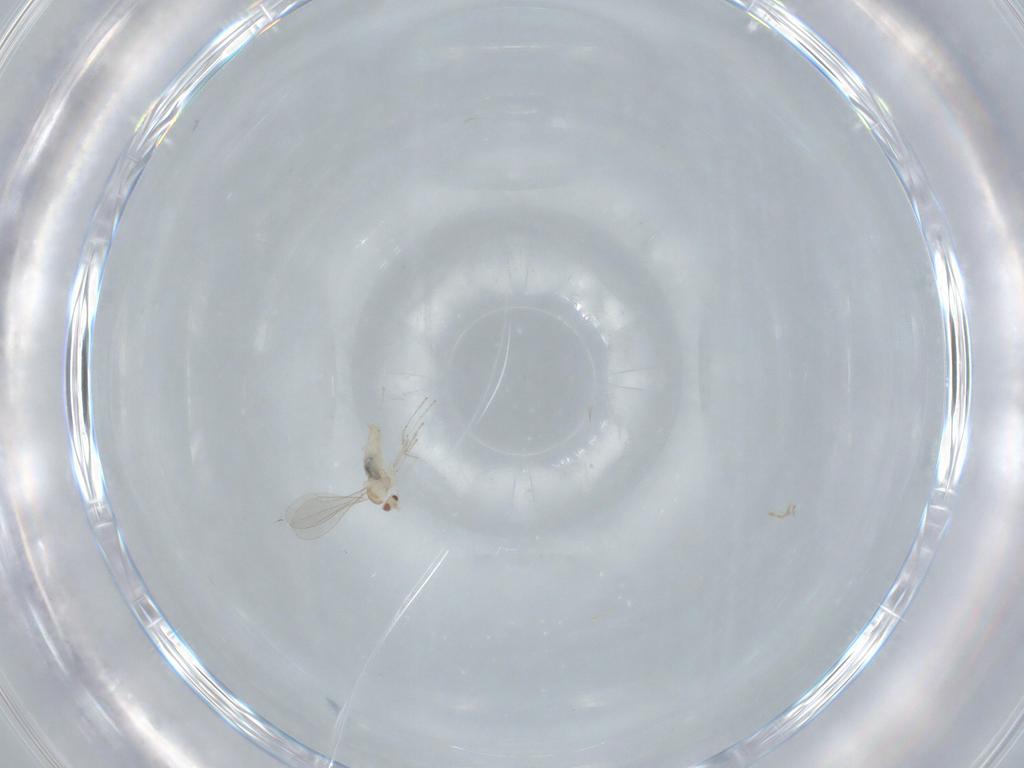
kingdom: Animalia
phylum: Arthropoda
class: Insecta
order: Diptera
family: Cecidomyiidae
